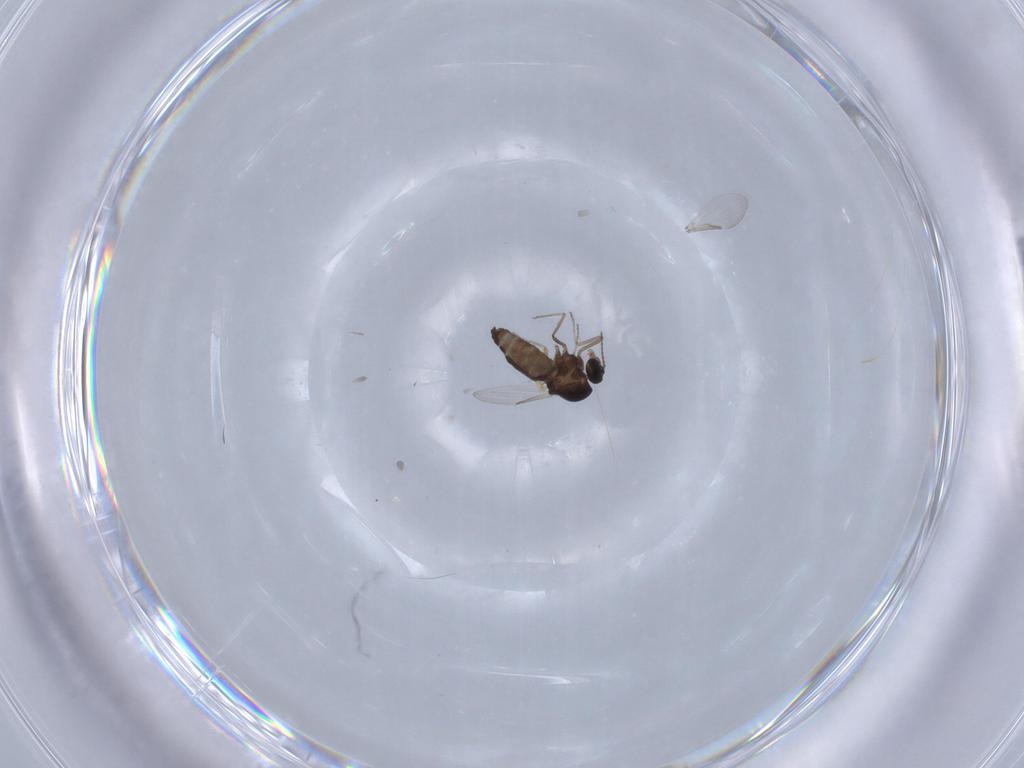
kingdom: Animalia
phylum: Arthropoda
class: Insecta
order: Diptera
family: Ceratopogonidae
